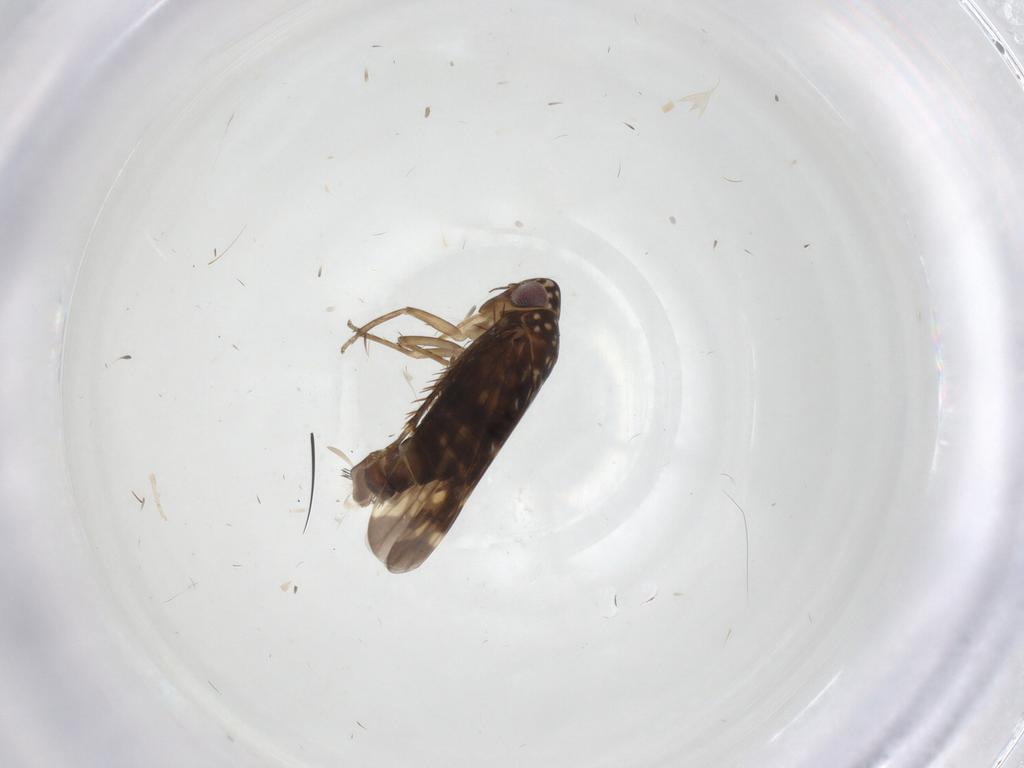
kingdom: Animalia
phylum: Arthropoda
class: Insecta
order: Hemiptera
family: Cicadellidae
